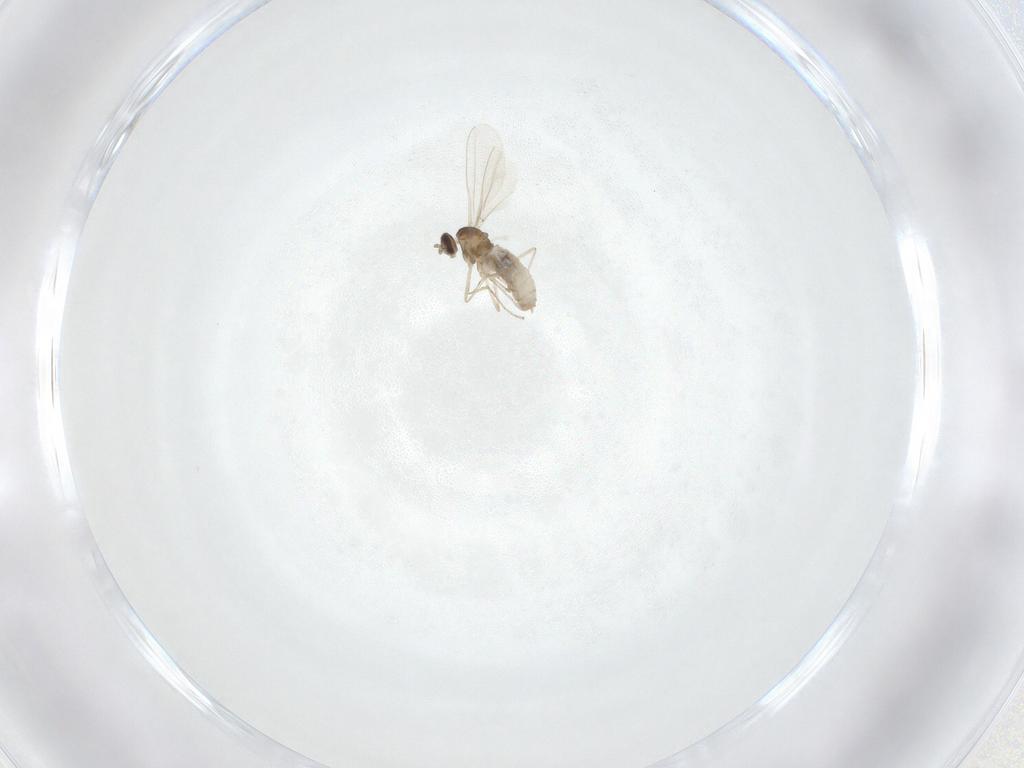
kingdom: Animalia
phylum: Arthropoda
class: Insecta
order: Diptera
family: Cecidomyiidae
